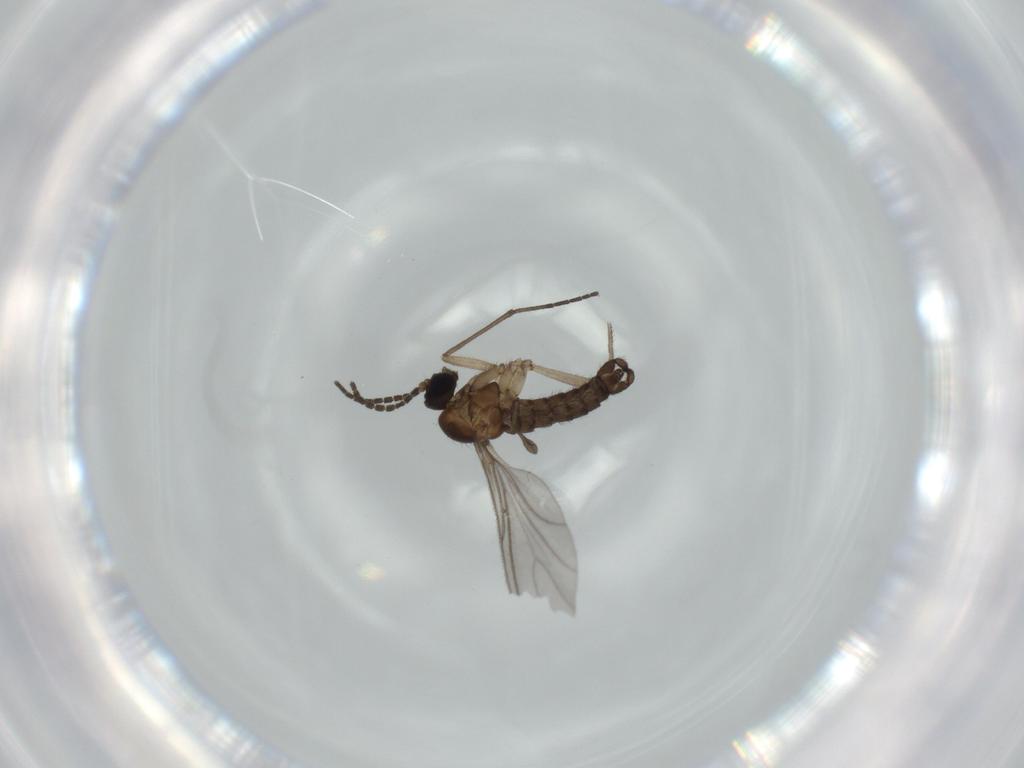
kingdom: Animalia
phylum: Arthropoda
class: Insecta
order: Diptera
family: Sciaridae
